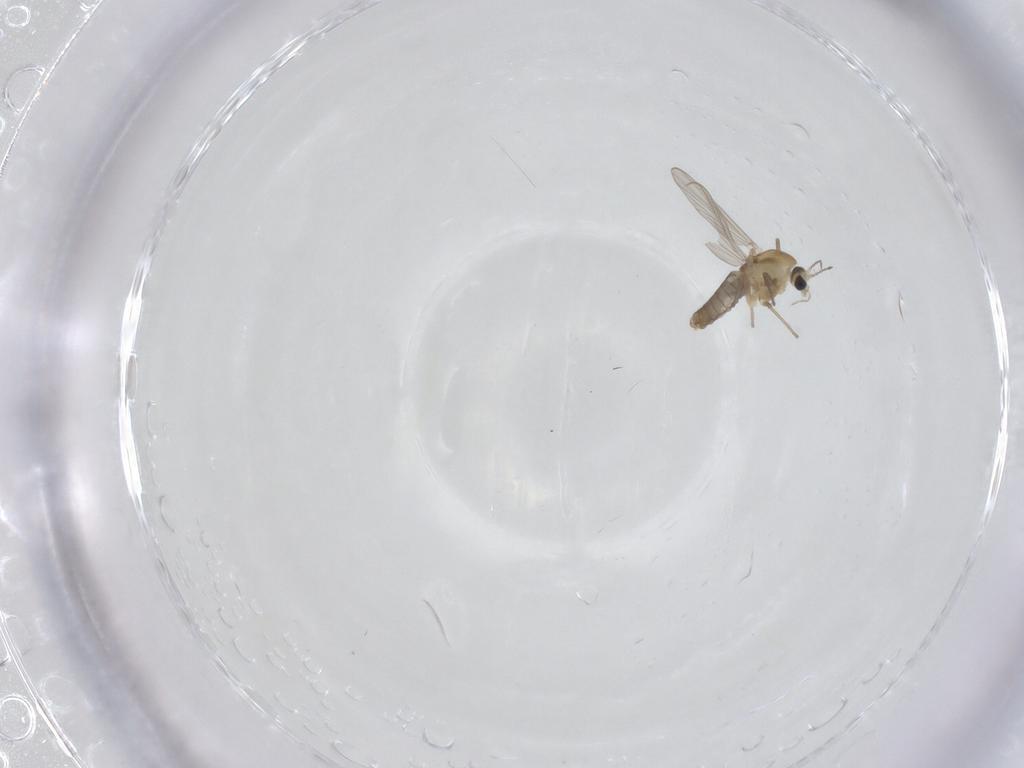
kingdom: Animalia
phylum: Arthropoda
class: Insecta
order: Diptera
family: Chironomidae
